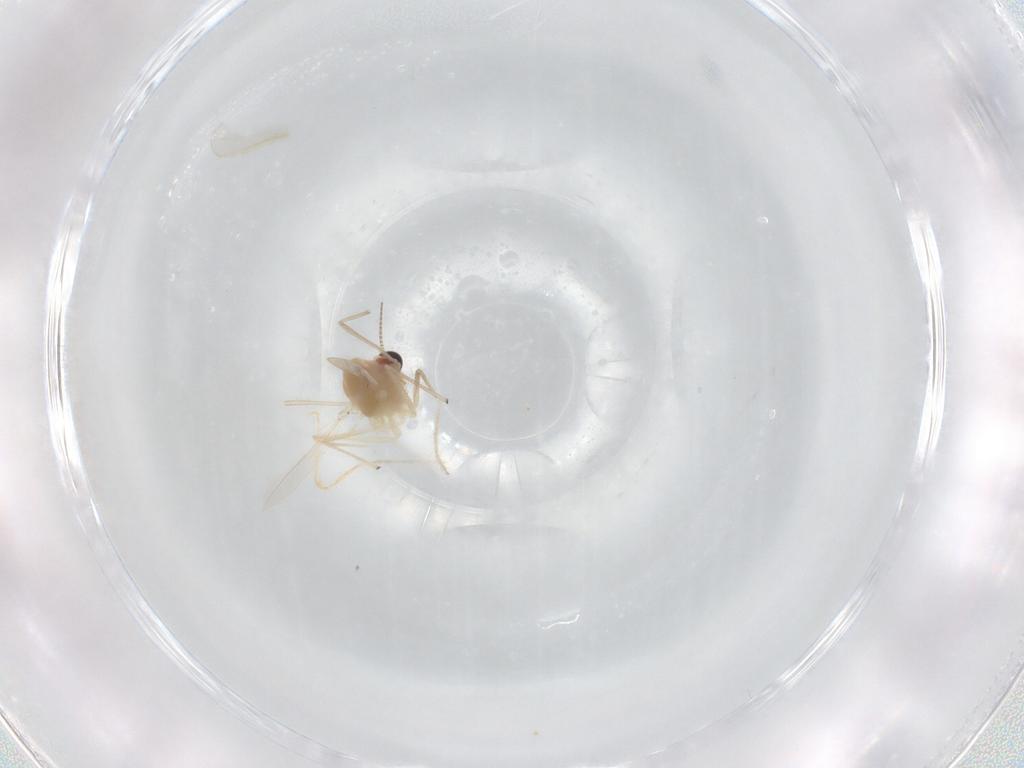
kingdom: Animalia
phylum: Arthropoda
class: Insecta
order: Diptera
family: Chironomidae
